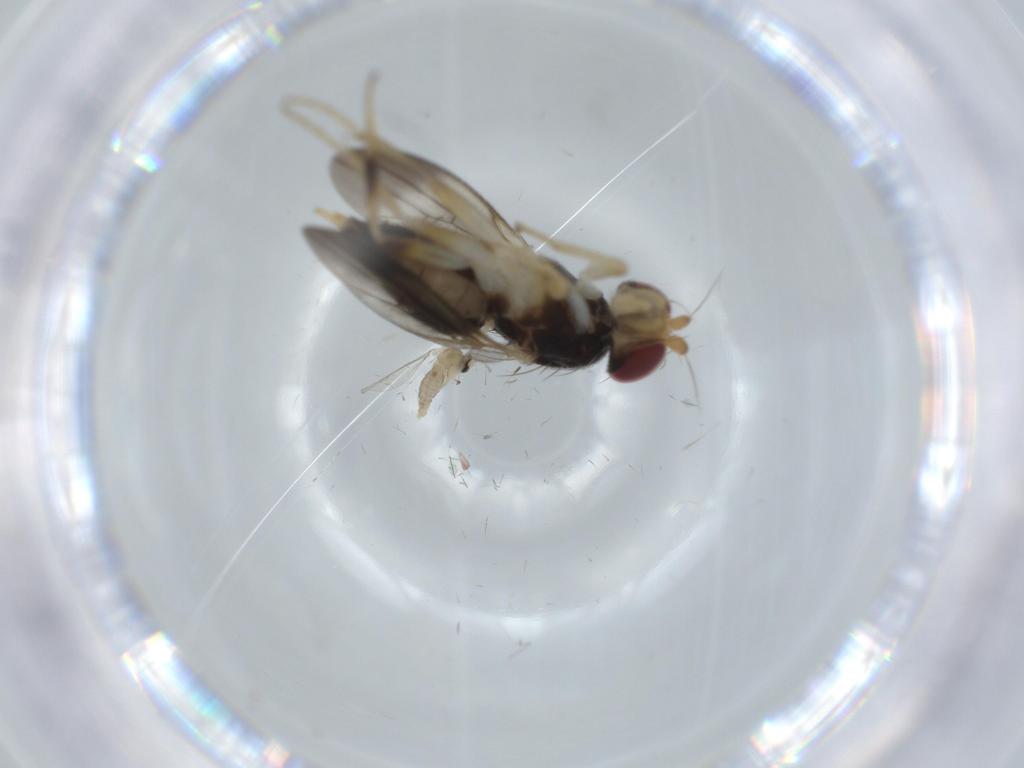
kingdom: Animalia
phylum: Arthropoda
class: Insecta
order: Diptera
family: Clusiidae
